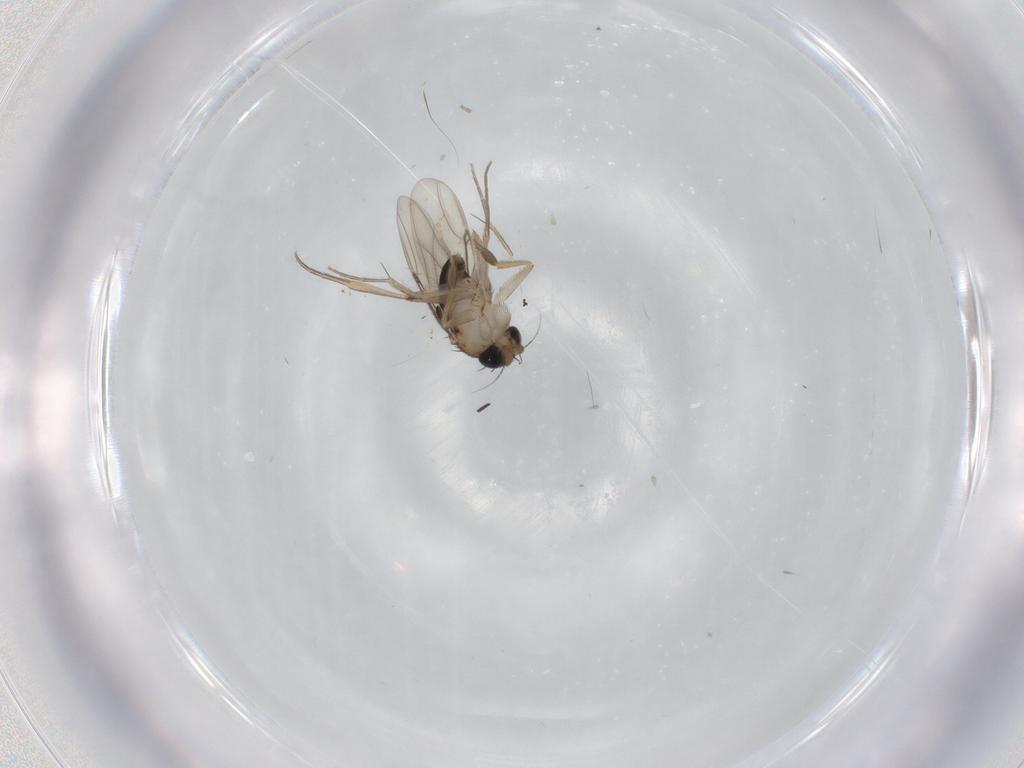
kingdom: Animalia
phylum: Arthropoda
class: Insecta
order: Diptera
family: Phoridae
